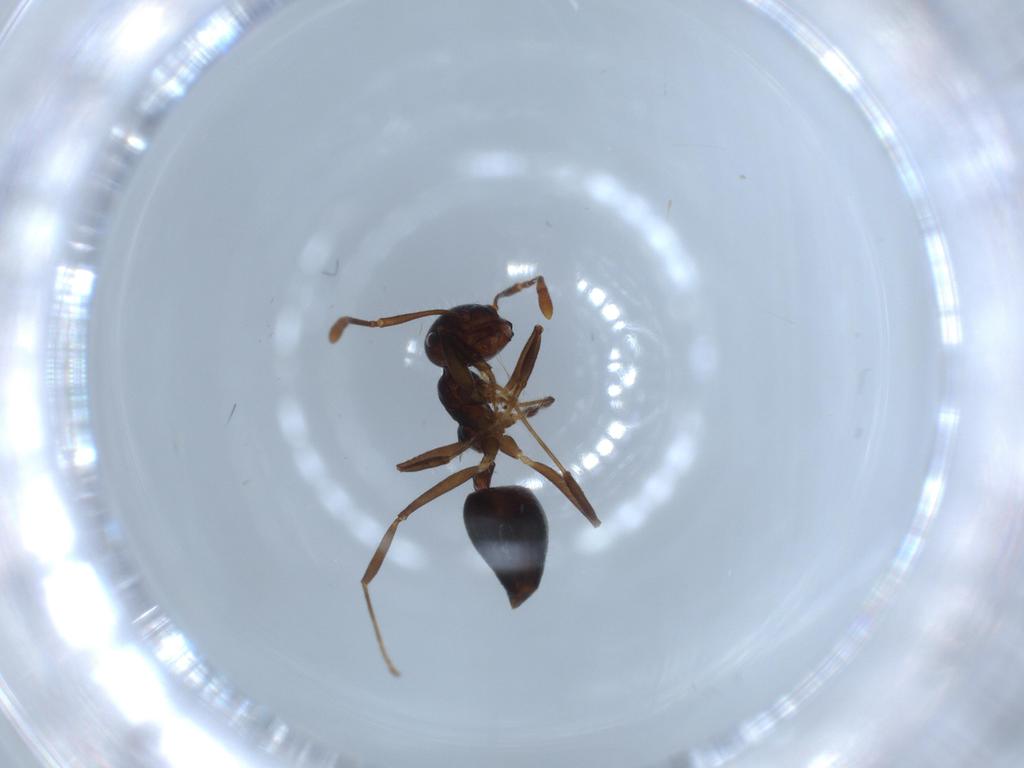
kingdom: Animalia
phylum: Arthropoda
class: Insecta
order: Hymenoptera
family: Formicidae
